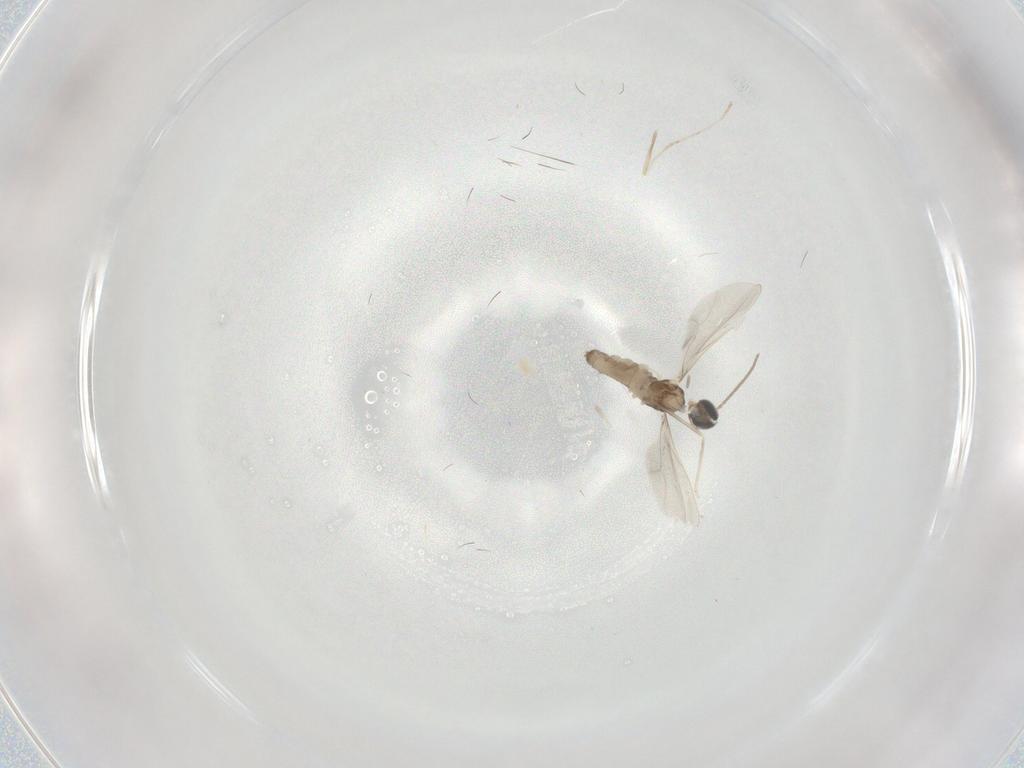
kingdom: Animalia
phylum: Arthropoda
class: Insecta
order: Diptera
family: Cecidomyiidae
